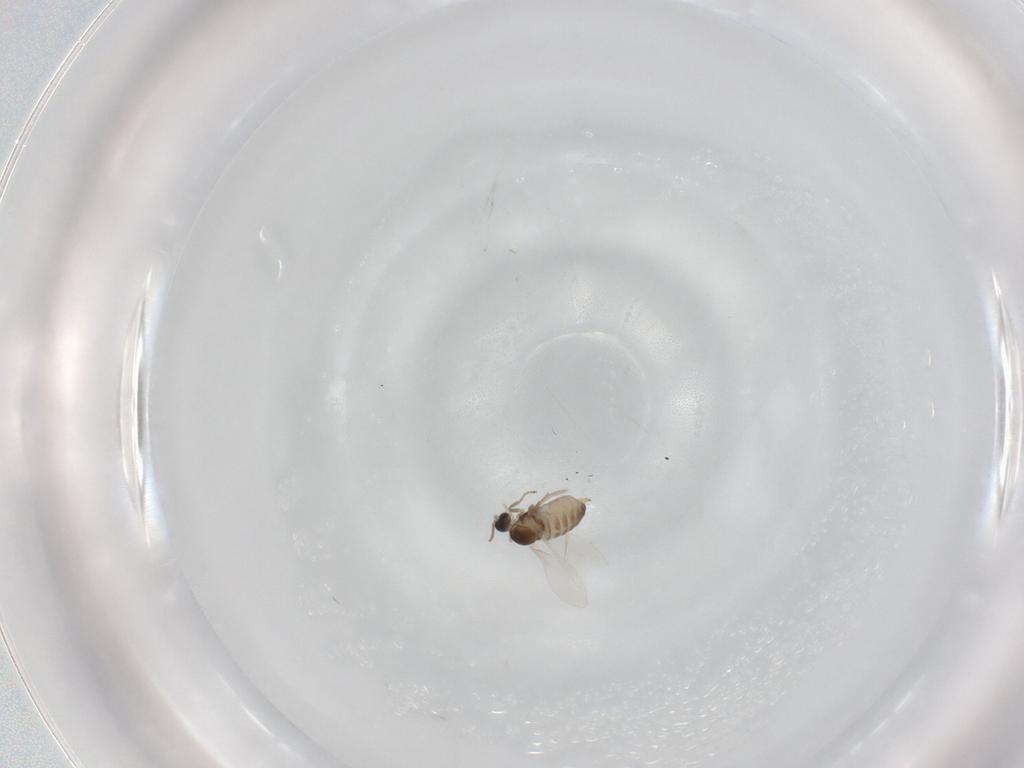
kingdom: Animalia
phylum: Arthropoda
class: Insecta
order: Diptera
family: Cecidomyiidae
